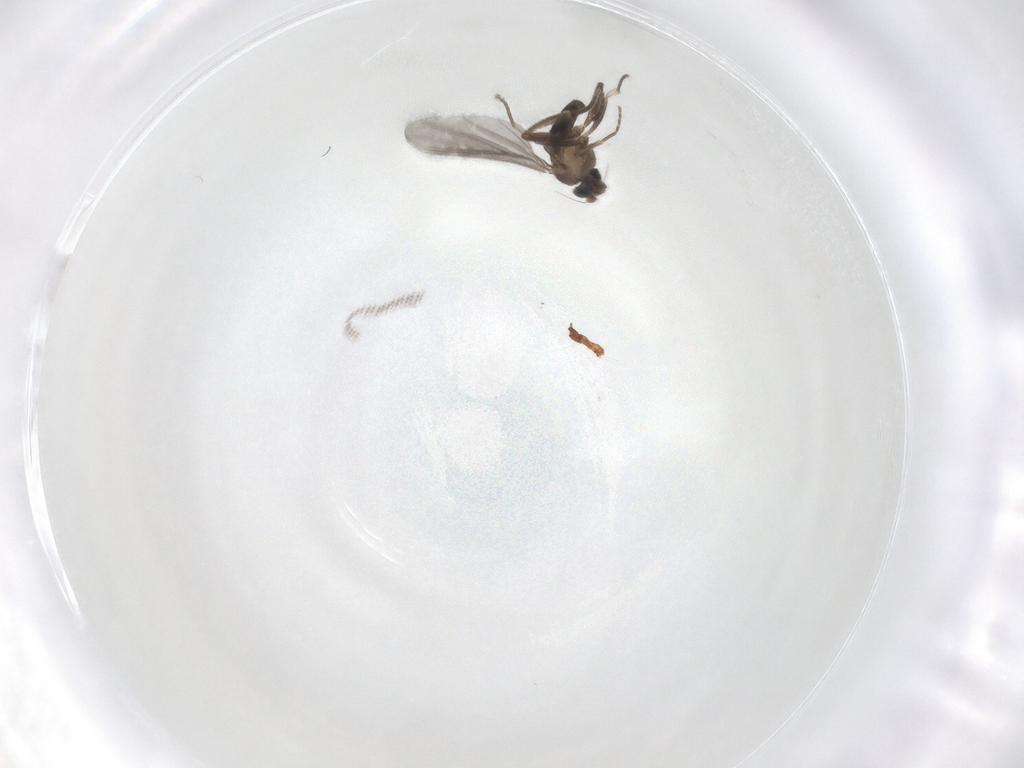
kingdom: Animalia
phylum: Arthropoda
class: Insecta
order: Diptera
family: Phoridae
